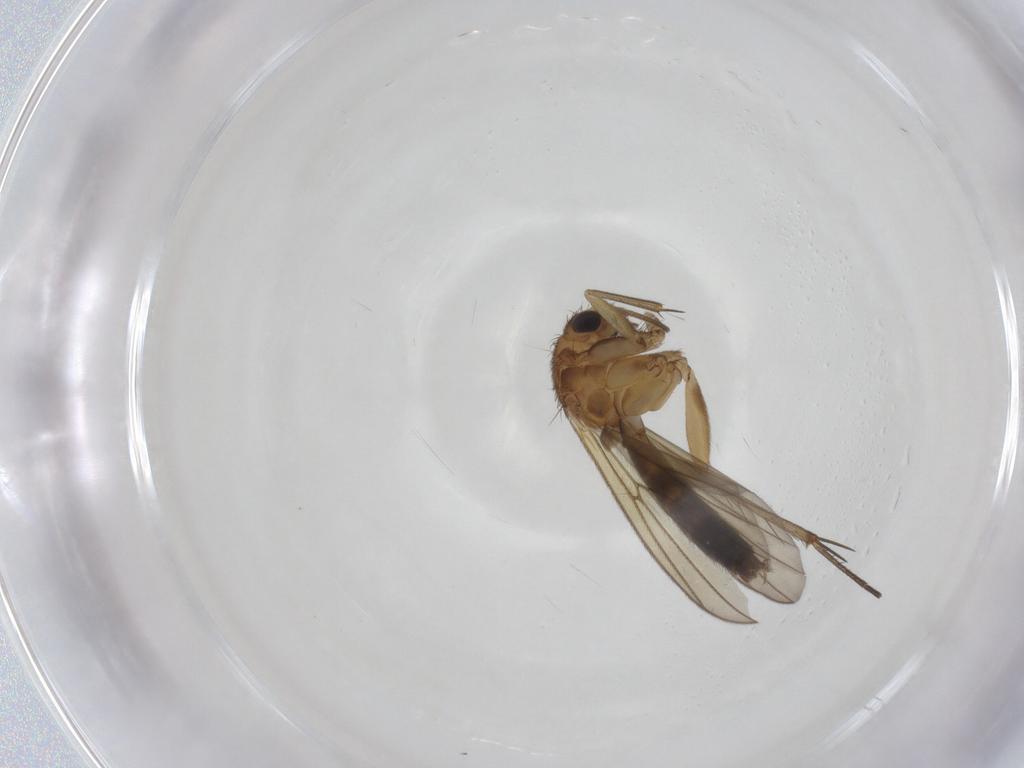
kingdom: Animalia
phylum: Arthropoda
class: Insecta
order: Diptera
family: Mycetophilidae
